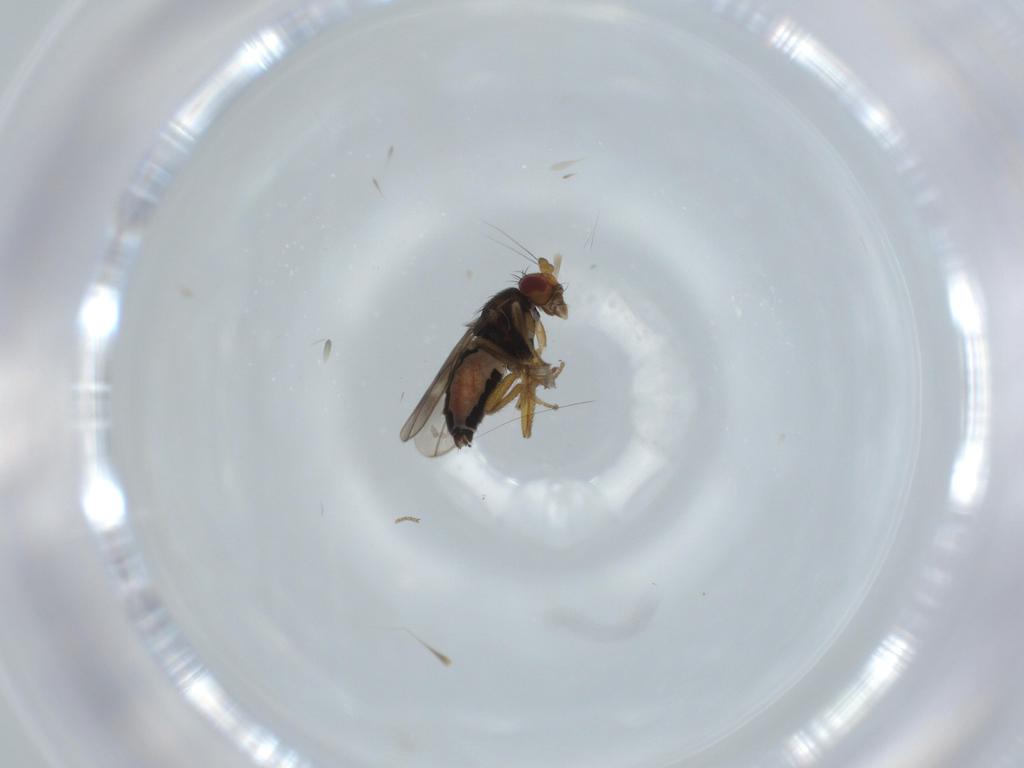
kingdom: Animalia
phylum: Arthropoda
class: Insecta
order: Diptera
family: Sphaeroceridae
